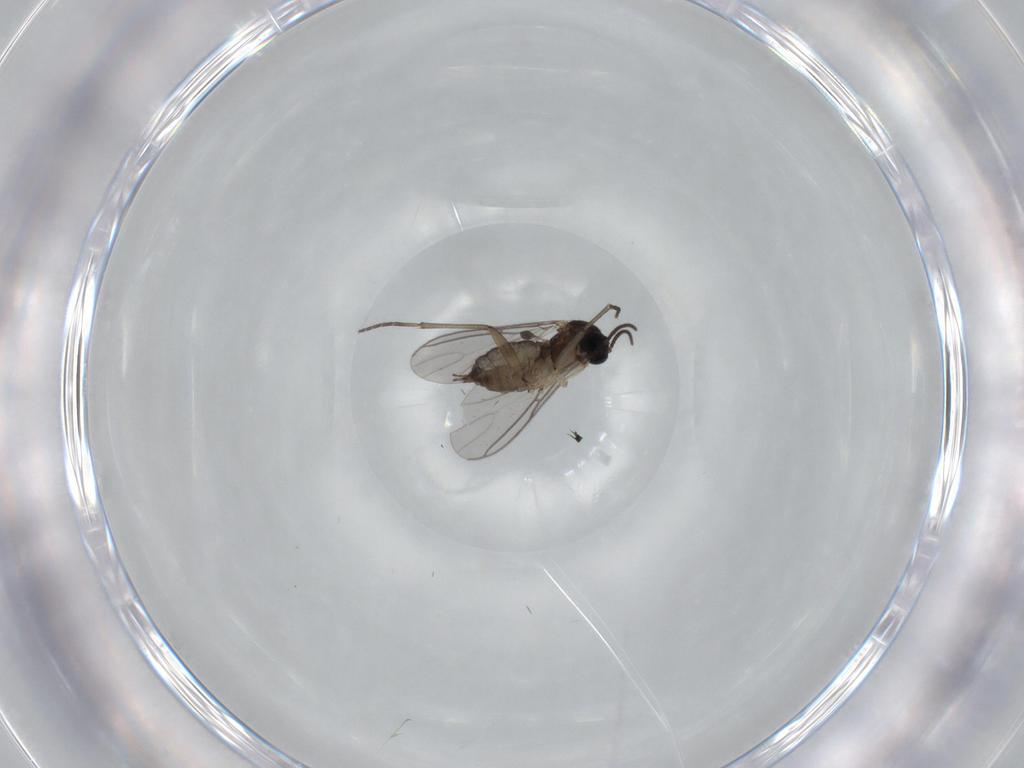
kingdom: Animalia
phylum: Arthropoda
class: Insecta
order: Diptera
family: Sciaridae
